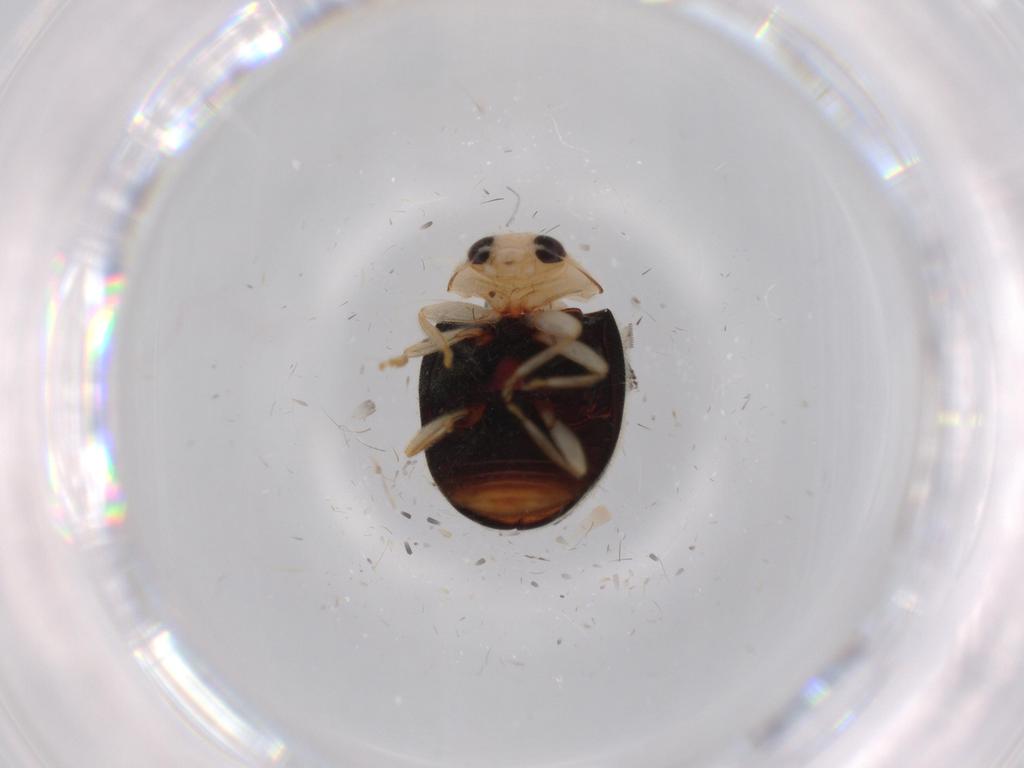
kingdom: Animalia
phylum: Arthropoda
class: Insecta
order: Coleoptera
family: Coccinellidae
